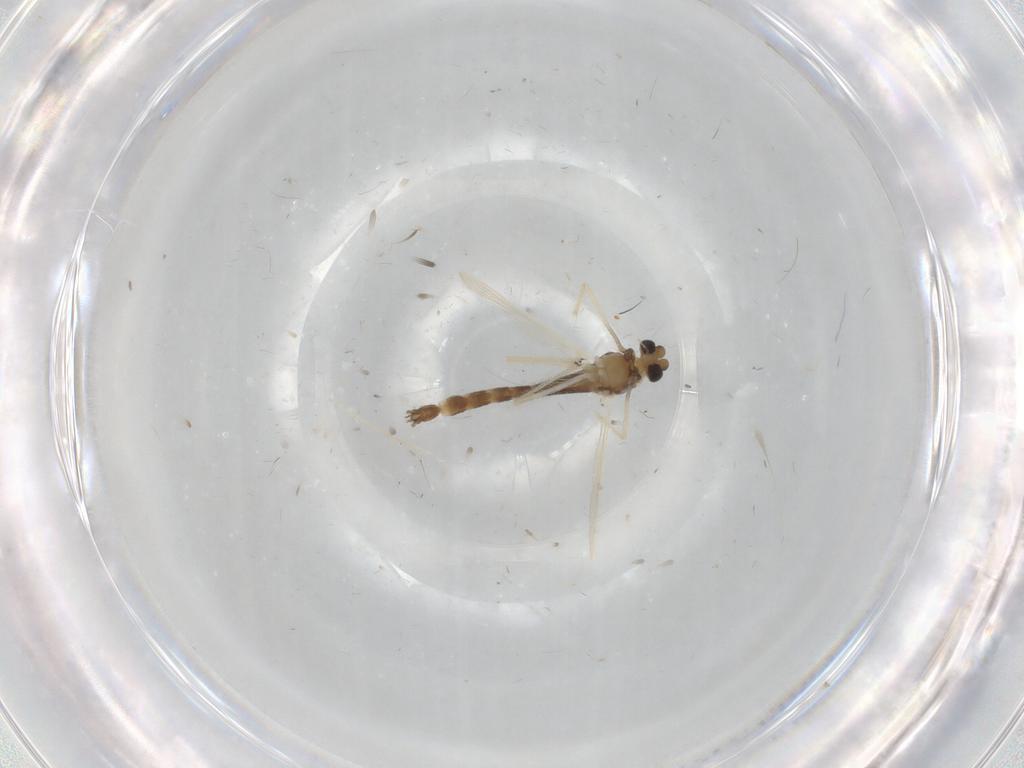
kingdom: Animalia
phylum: Arthropoda
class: Insecta
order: Diptera
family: Chironomidae
